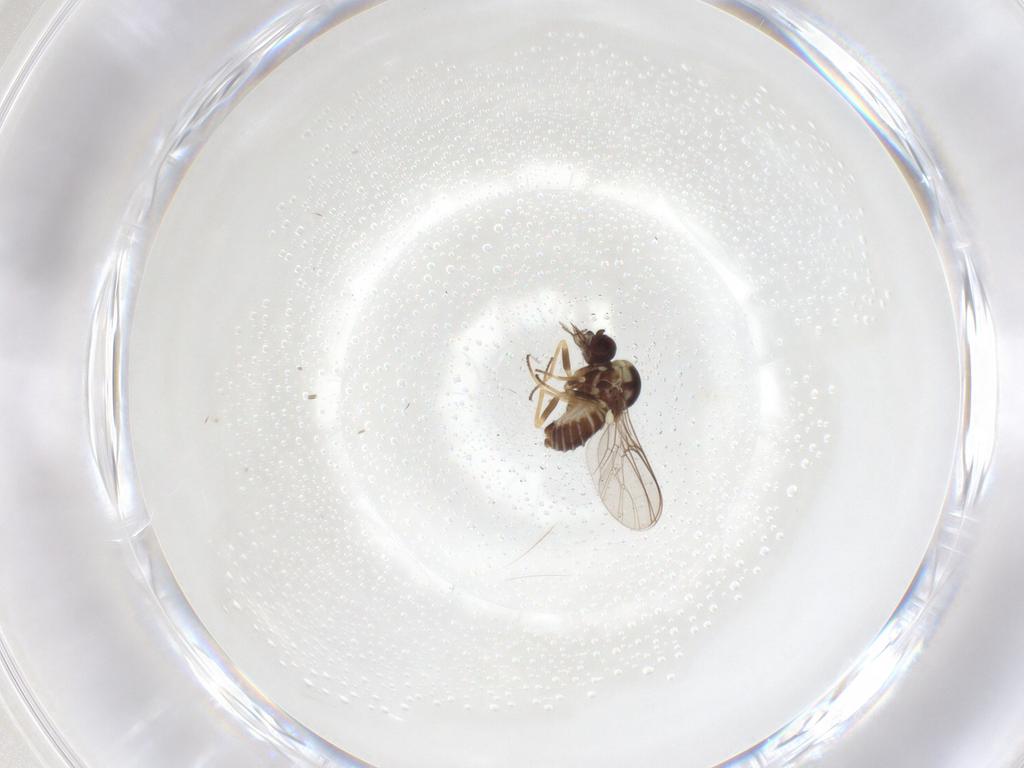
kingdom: Animalia
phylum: Arthropoda
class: Insecta
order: Diptera
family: Bombyliidae
